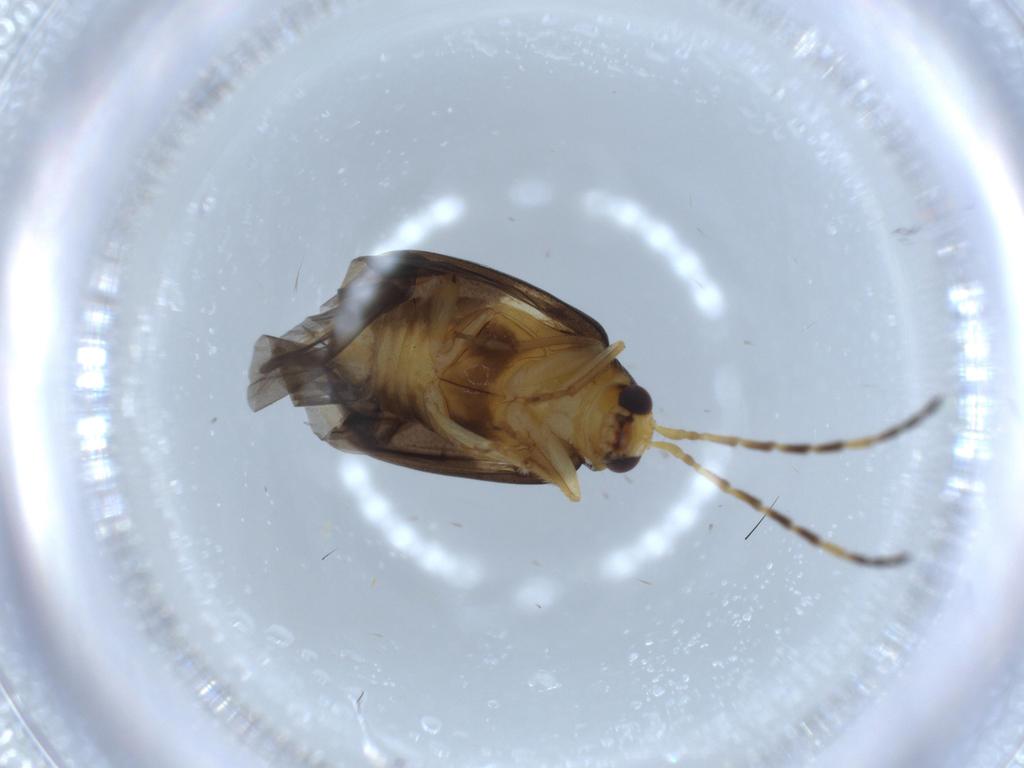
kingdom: Animalia
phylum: Arthropoda
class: Insecta
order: Coleoptera
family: Chrysomelidae
